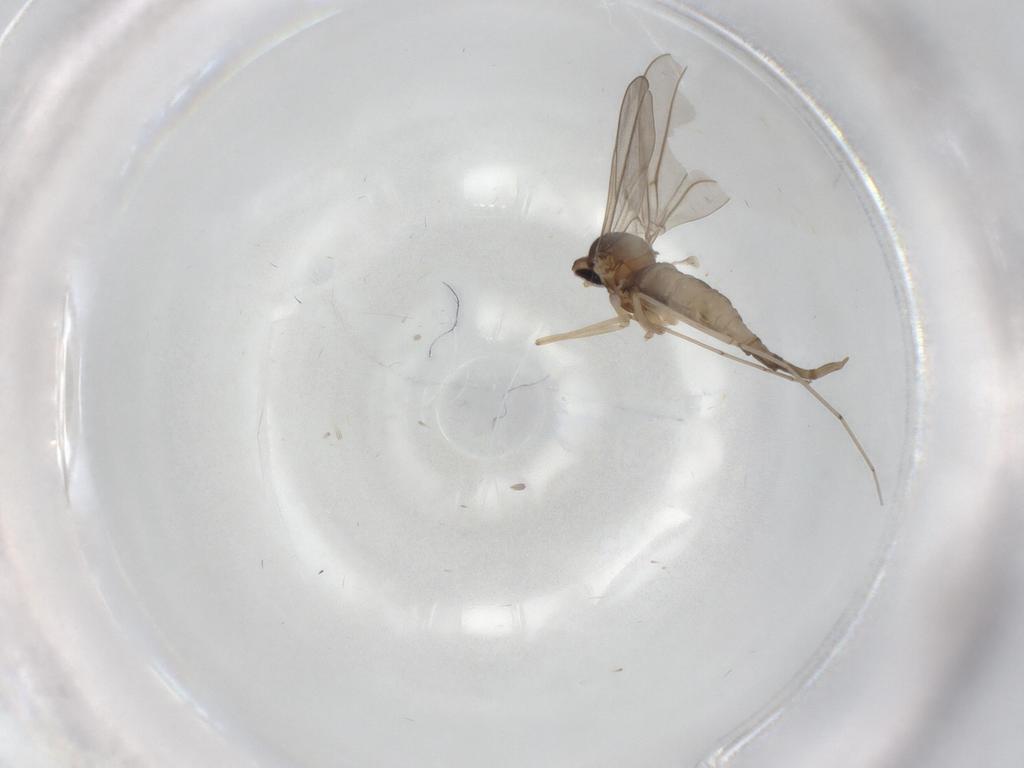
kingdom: Animalia
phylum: Arthropoda
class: Insecta
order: Diptera
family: Cecidomyiidae
